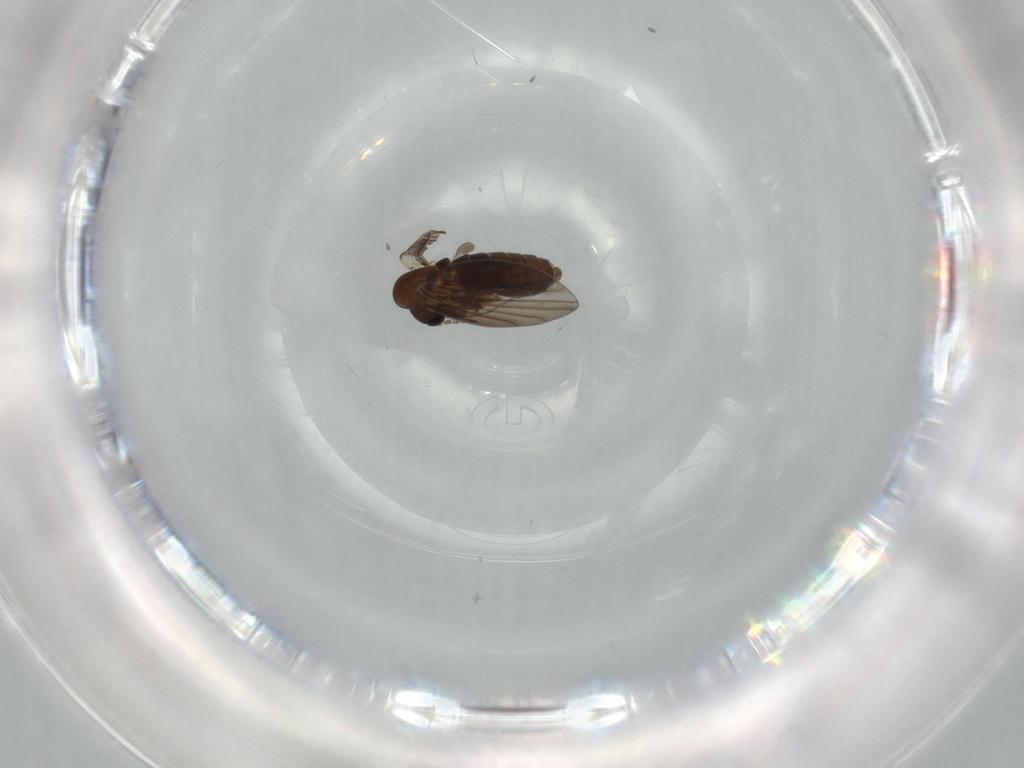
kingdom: Animalia
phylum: Arthropoda
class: Insecta
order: Diptera
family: Psychodidae
